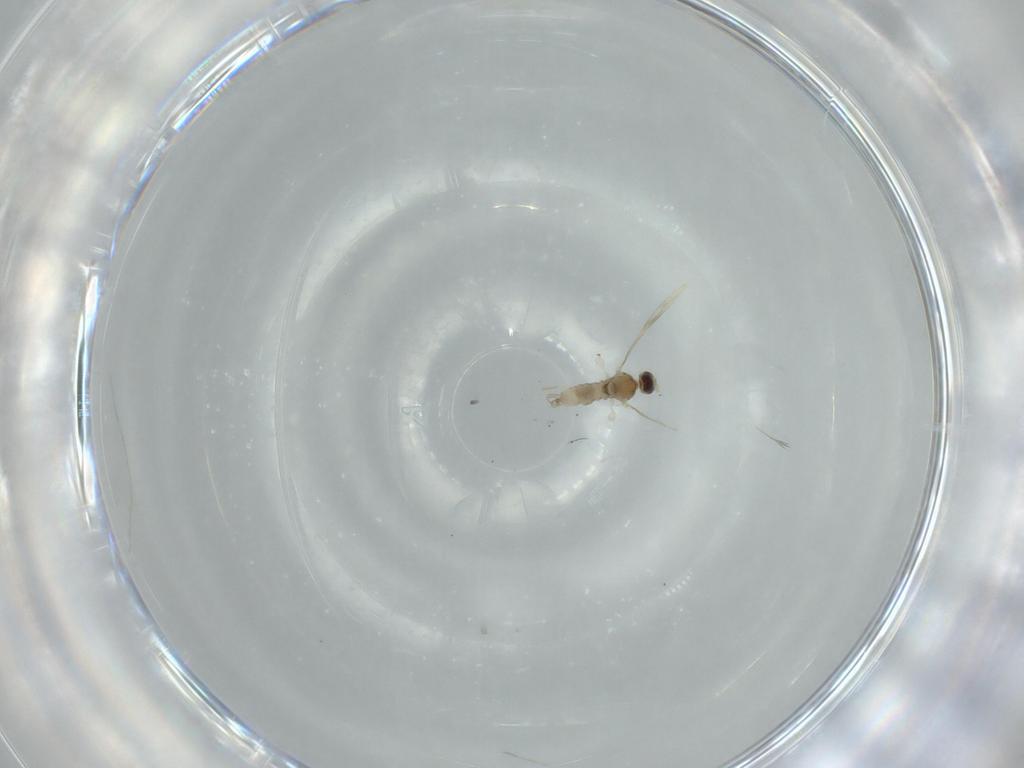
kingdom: Animalia
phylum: Arthropoda
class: Insecta
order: Diptera
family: Cecidomyiidae
